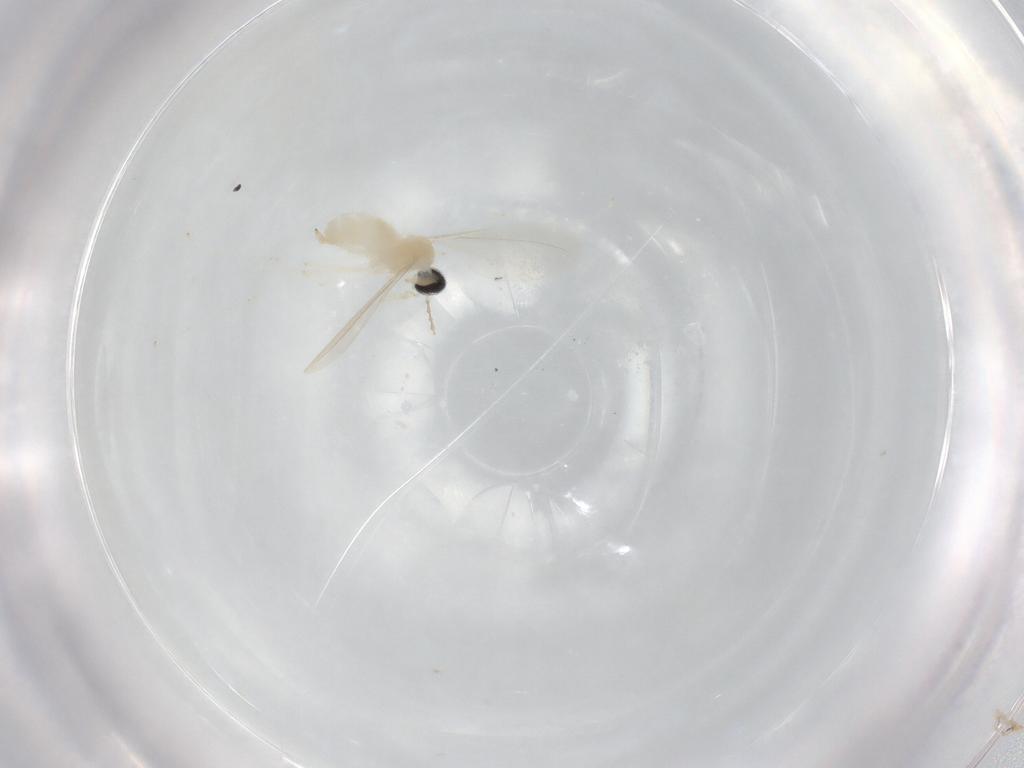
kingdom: Animalia
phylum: Arthropoda
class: Insecta
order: Diptera
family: Cecidomyiidae
